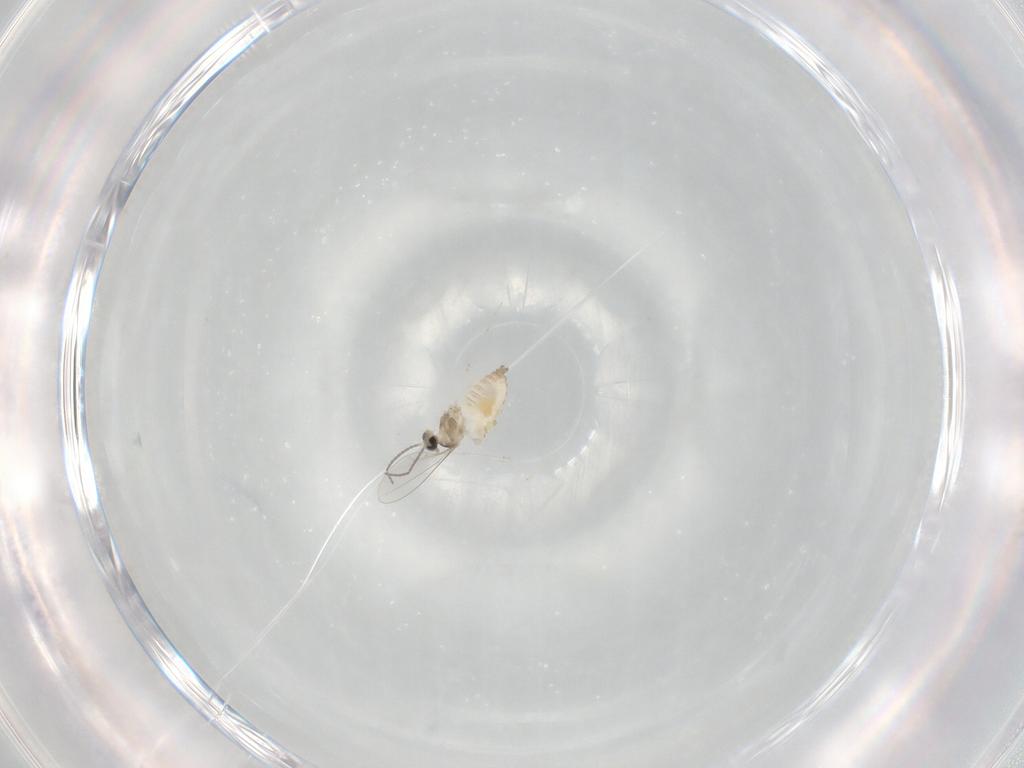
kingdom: Animalia
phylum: Arthropoda
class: Insecta
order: Diptera
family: Cecidomyiidae
